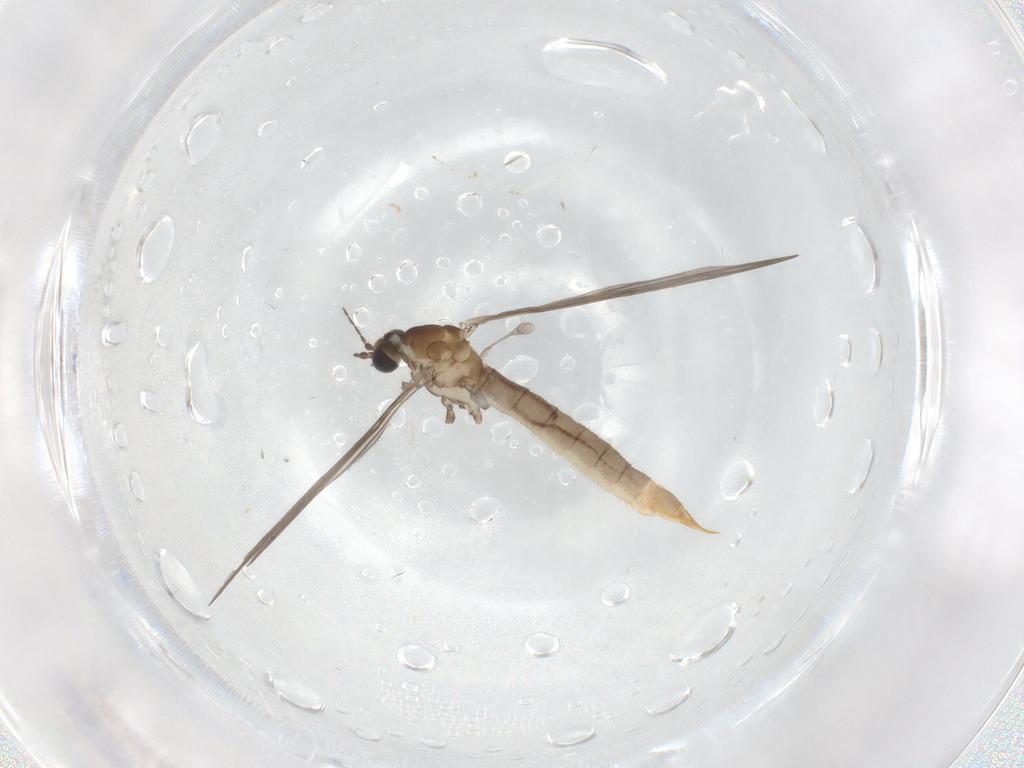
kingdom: Animalia
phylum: Arthropoda
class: Insecta
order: Diptera
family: Limoniidae
